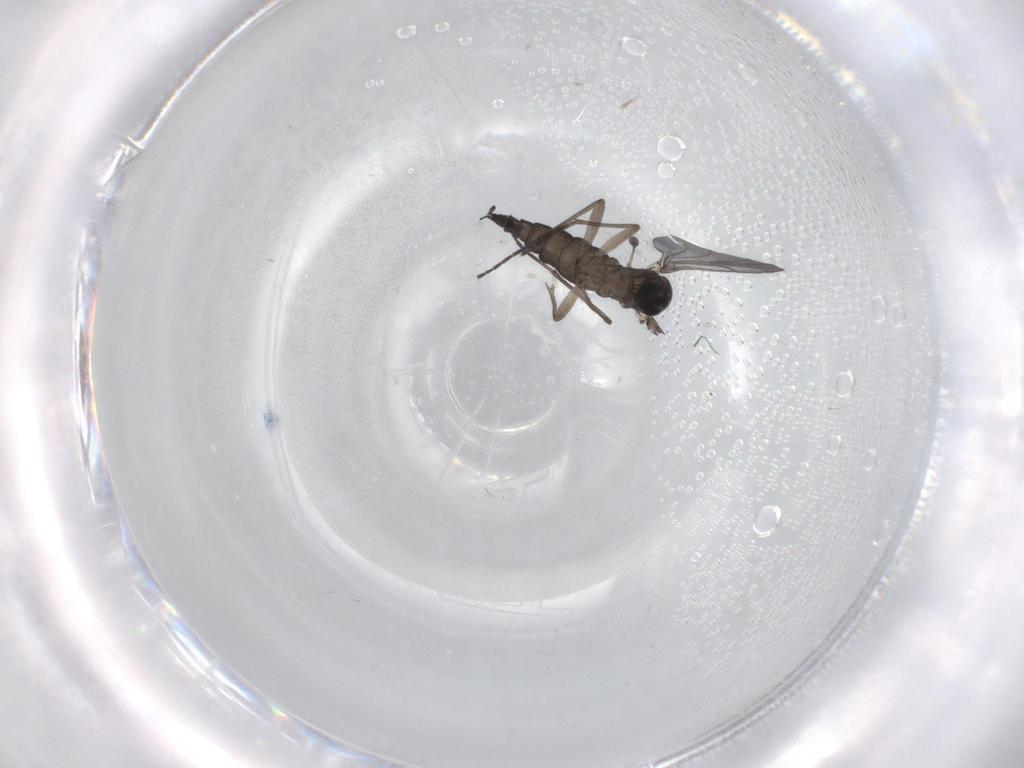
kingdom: Animalia
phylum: Arthropoda
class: Insecta
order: Diptera
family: Sciaridae
